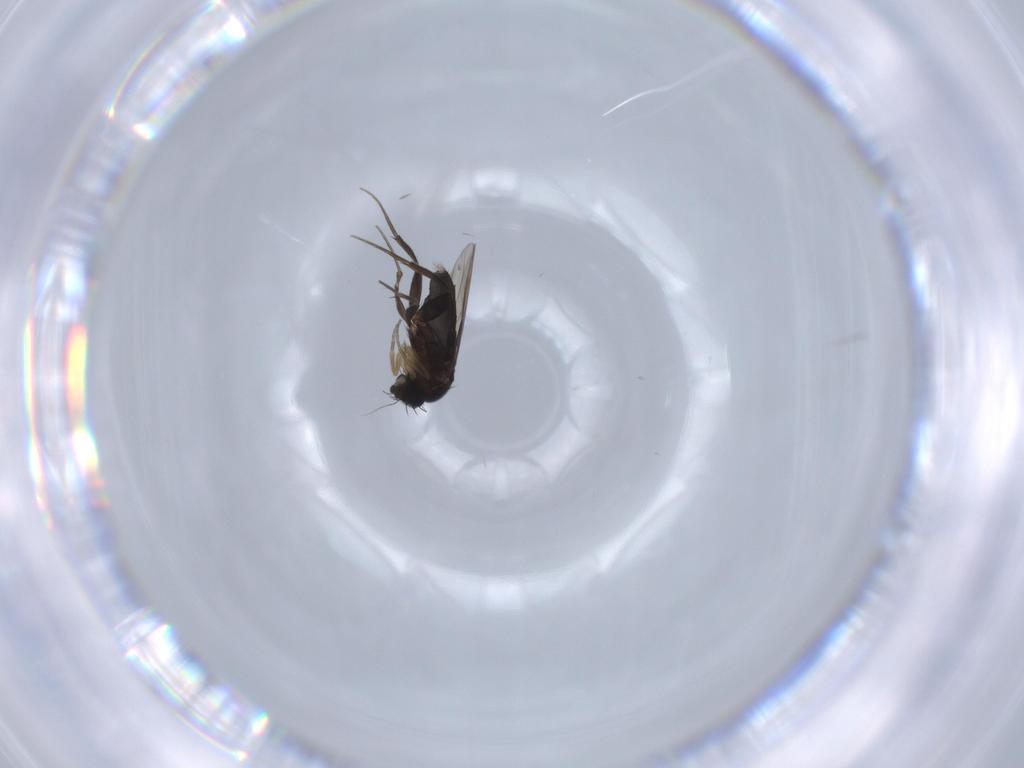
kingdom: Animalia
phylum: Arthropoda
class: Insecta
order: Diptera
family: Phoridae
